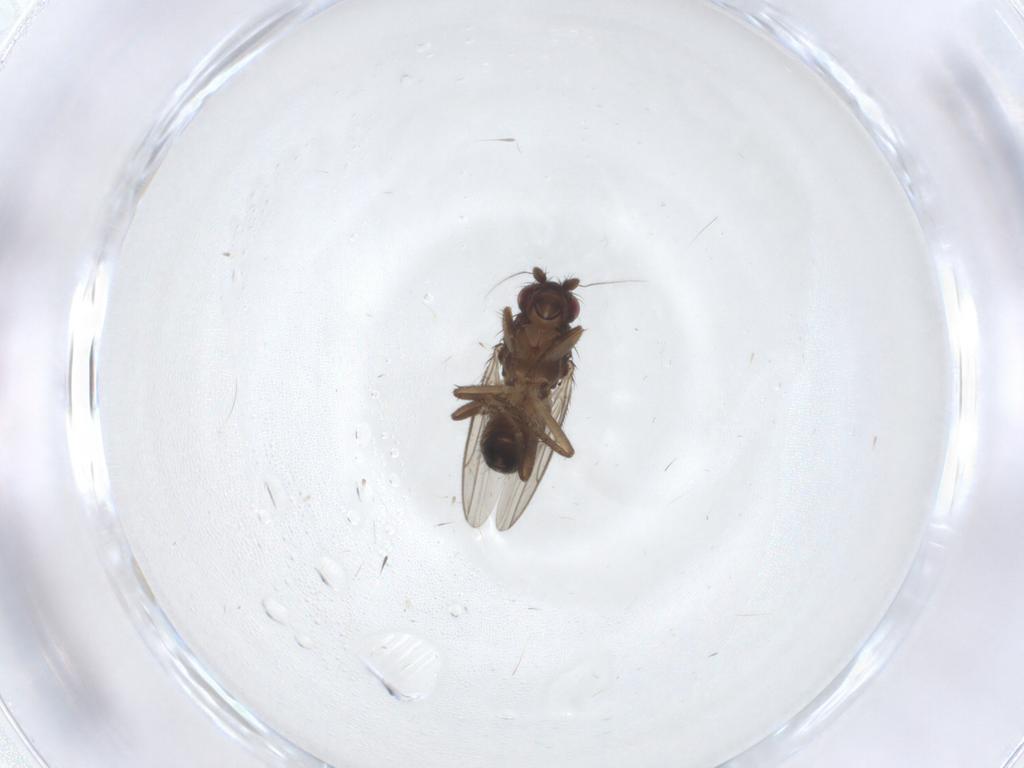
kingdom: Animalia
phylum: Arthropoda
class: Insecta
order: Diptera
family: Sphaeroceridae
